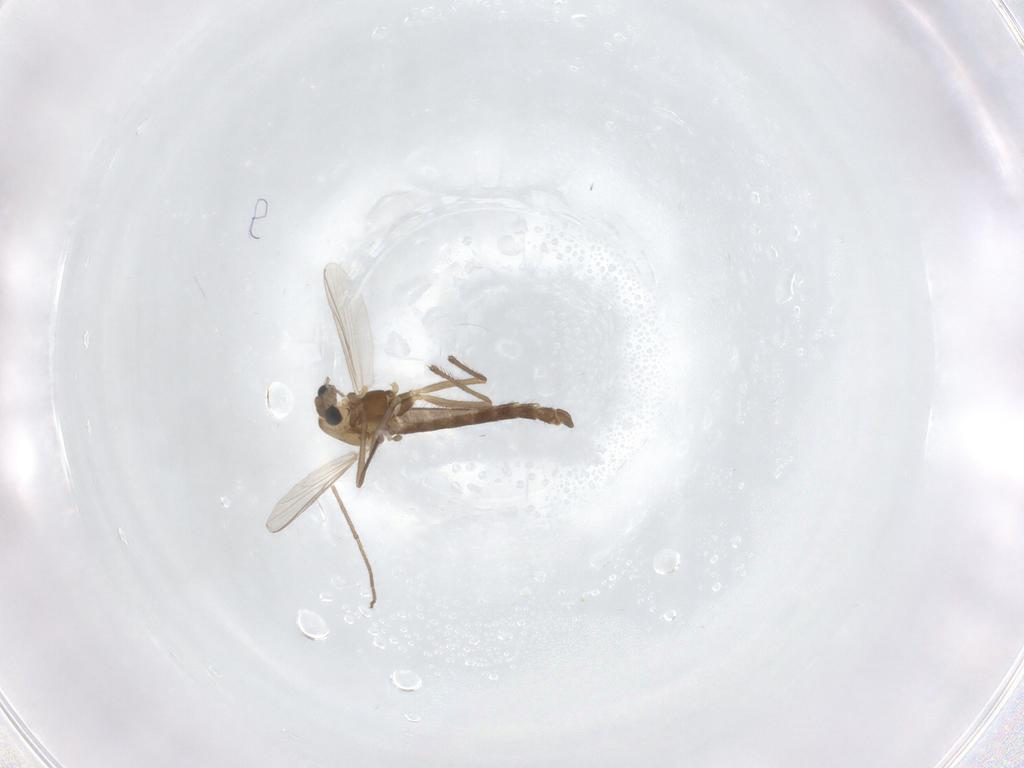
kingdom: Animalia
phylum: Arthropoda
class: Insecta
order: Diptera
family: Chironomidae
